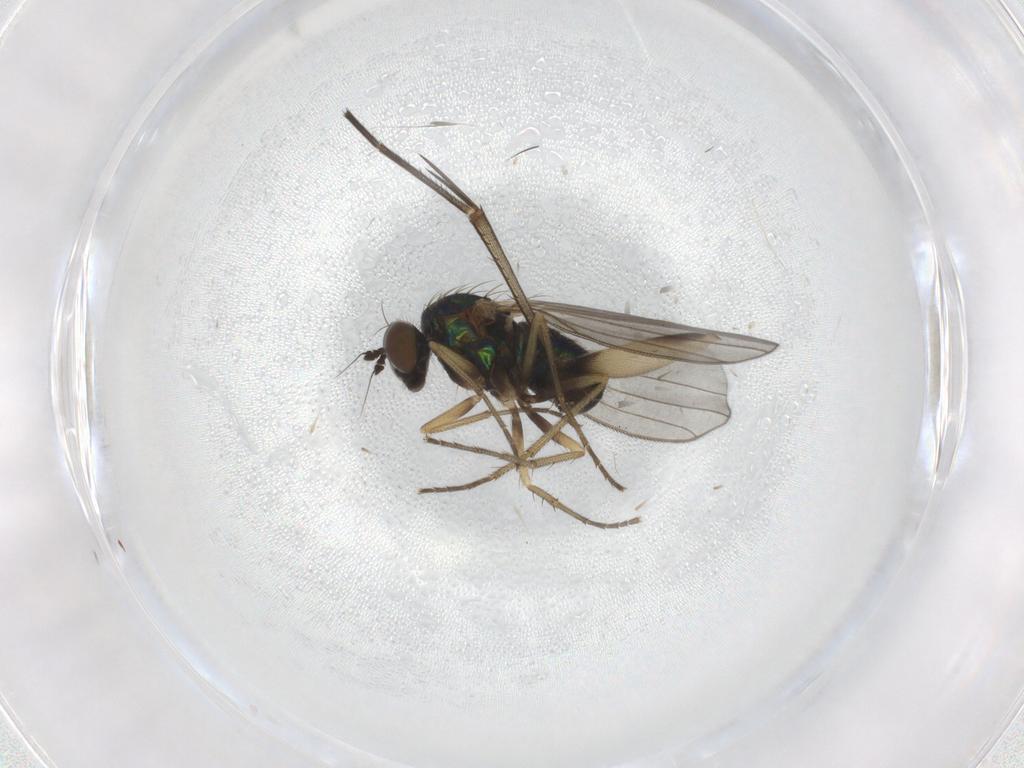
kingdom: Animalia
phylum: Arthropoda
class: Insecta
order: Diptera
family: Mycetophilidae
